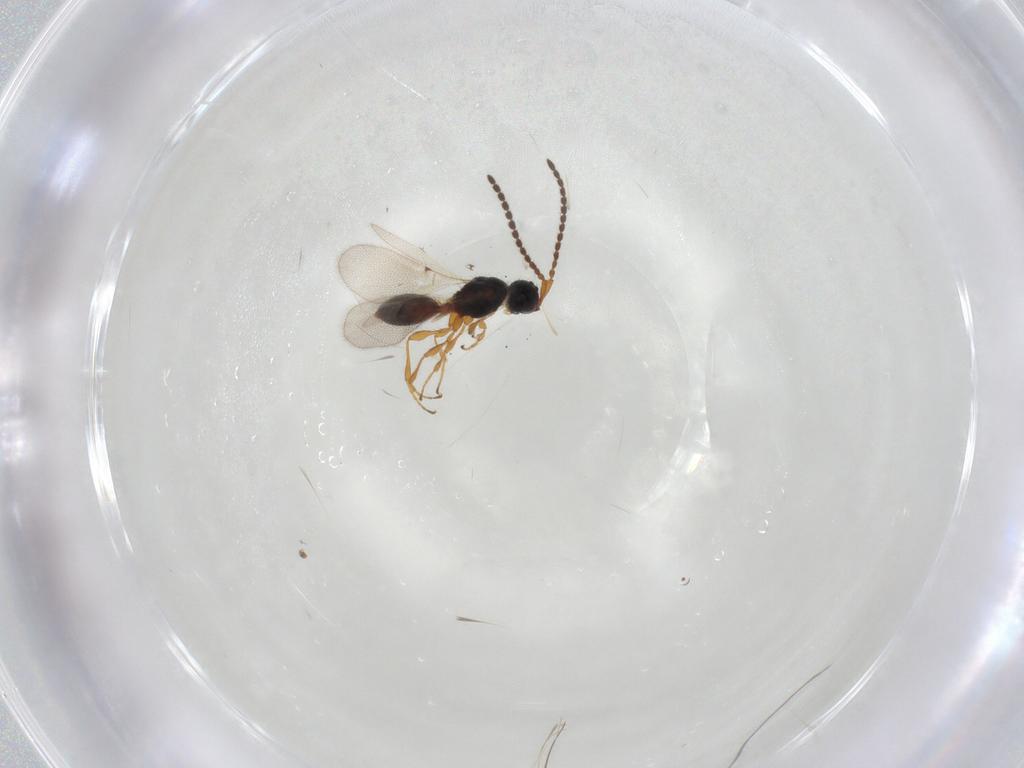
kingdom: Animalia
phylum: Arthropoda
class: Insecta
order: Hymenoptera
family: Diapriidae
